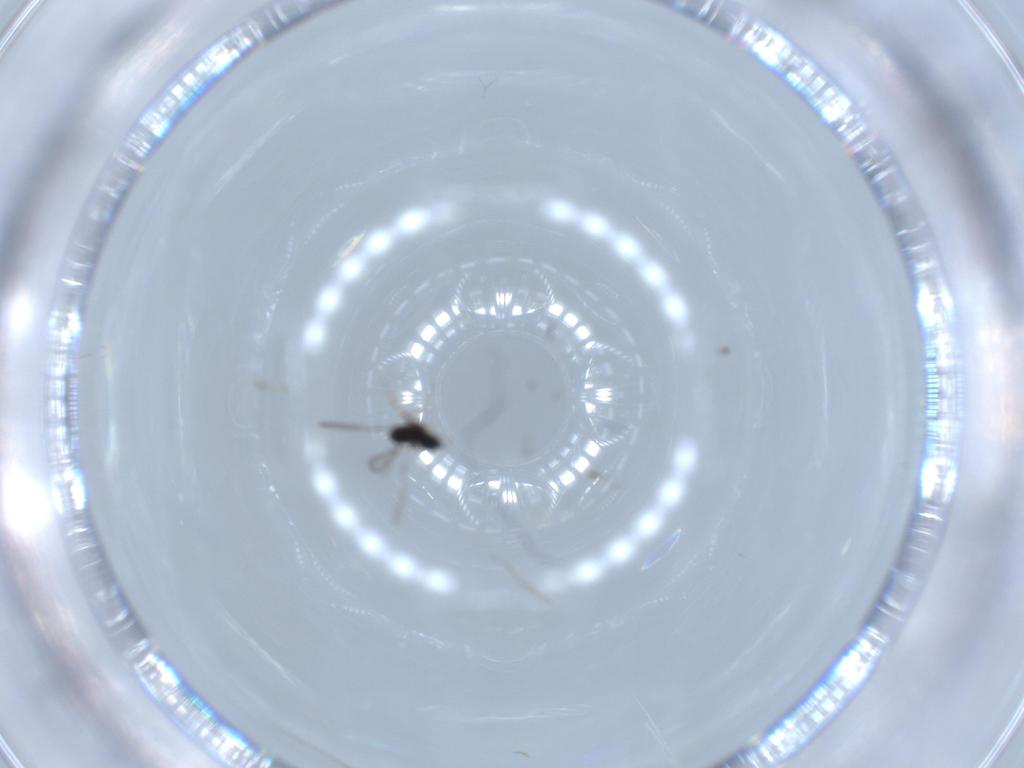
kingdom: Animalia
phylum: Arthropoda
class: Insecta
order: Hymenoptera
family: Mymaridae
